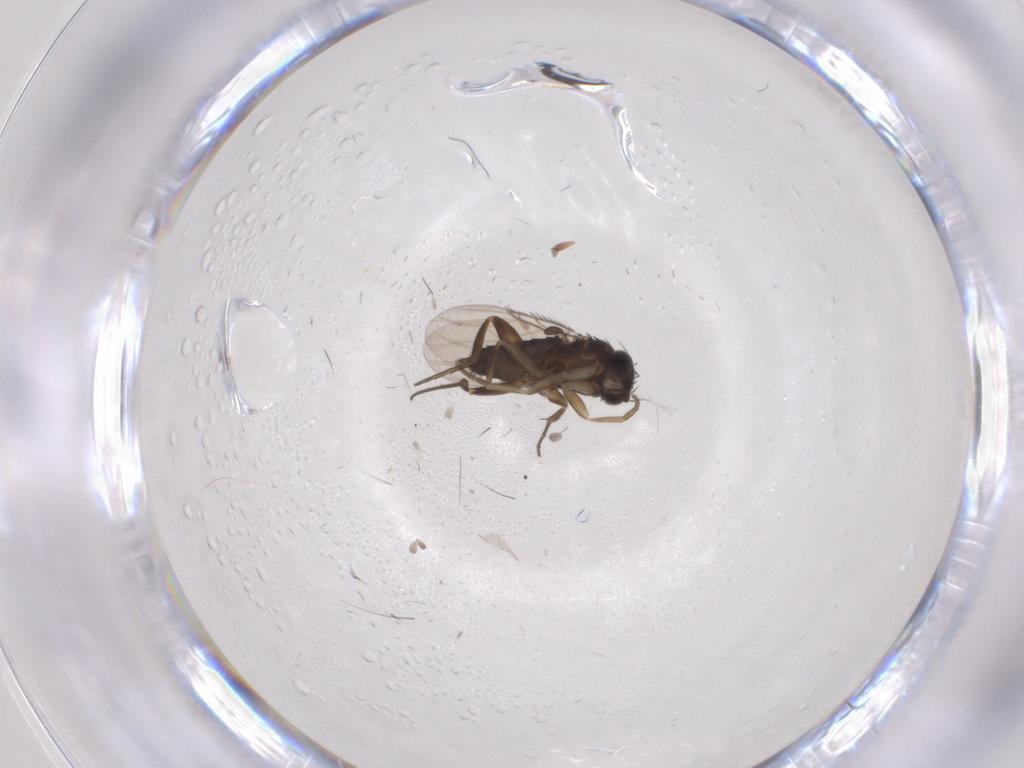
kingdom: Animalia
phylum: Arthropoda
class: Insecta
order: Diptera
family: Phoridae
